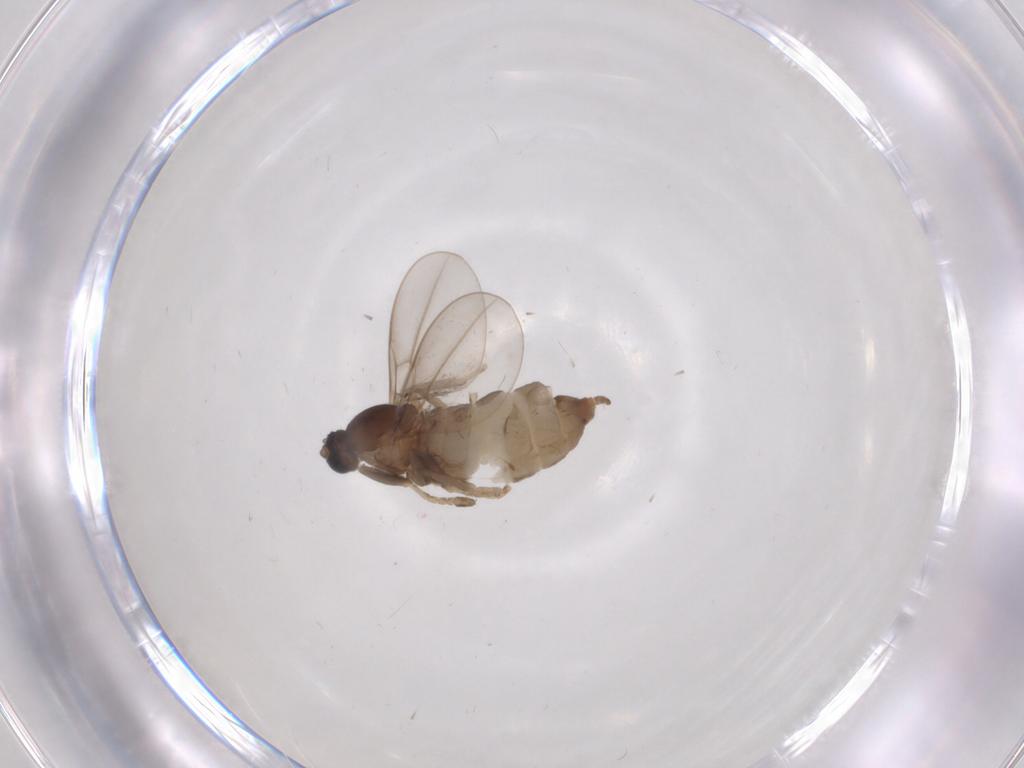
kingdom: Animalia
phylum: Arthropoda
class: Insecta
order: Diptera
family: Cecidomyiidae
